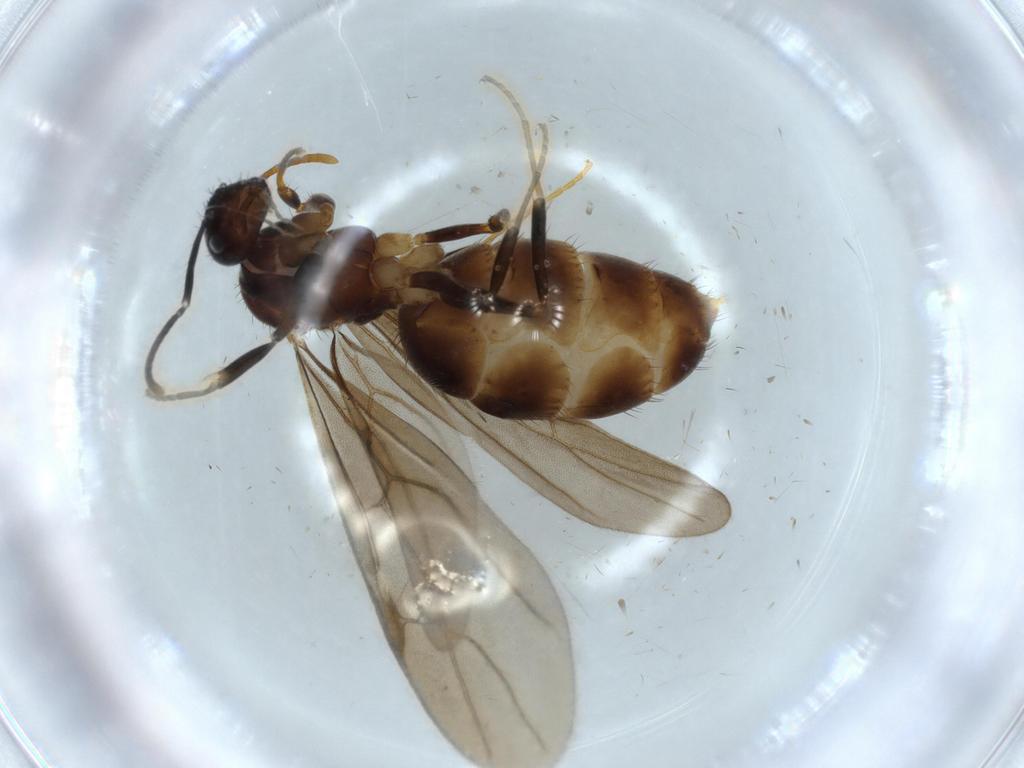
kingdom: Animalia
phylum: Arthropoda
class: Insecta
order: Hymenoptera
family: Formicidae
